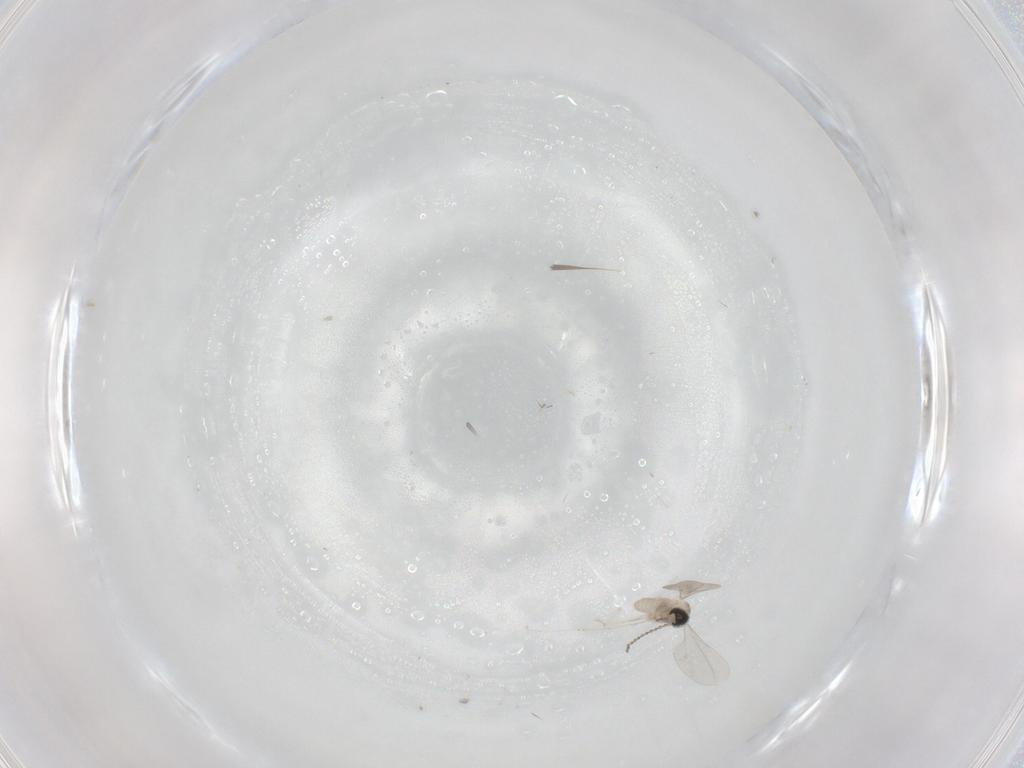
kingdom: Animalia
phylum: Arthropoda
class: Insecta
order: Diptera
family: Cecidomyiidae
